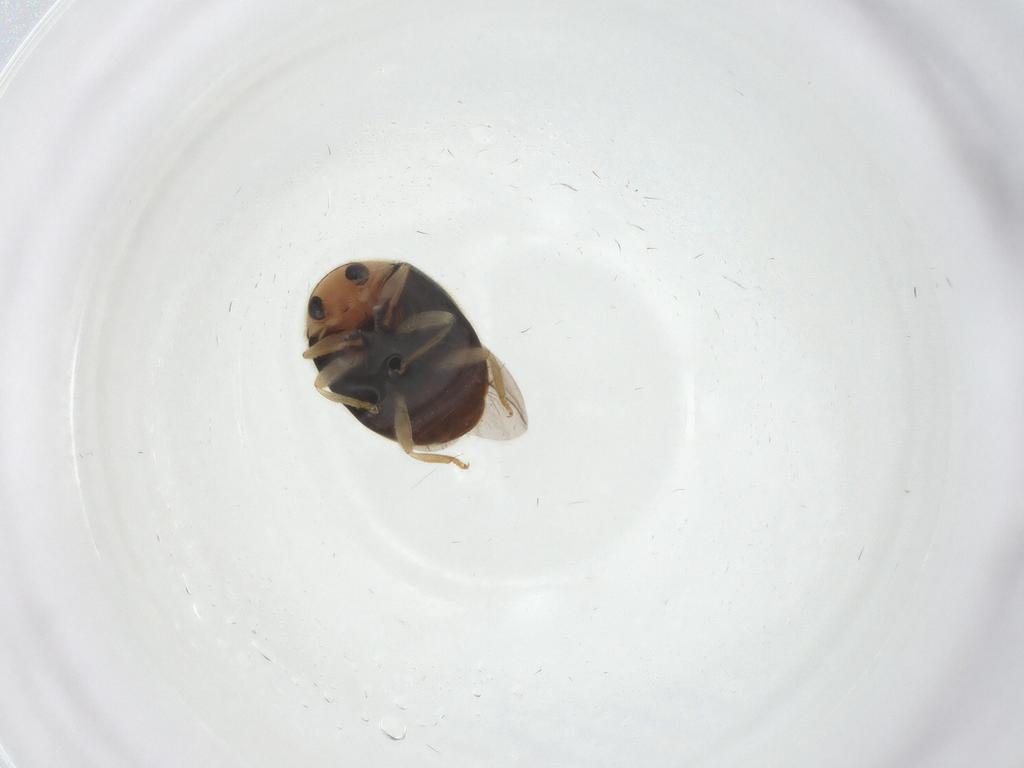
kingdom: Animalia
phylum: Arthropoda
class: Insecta
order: Coleoptera
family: Coccinellidae
